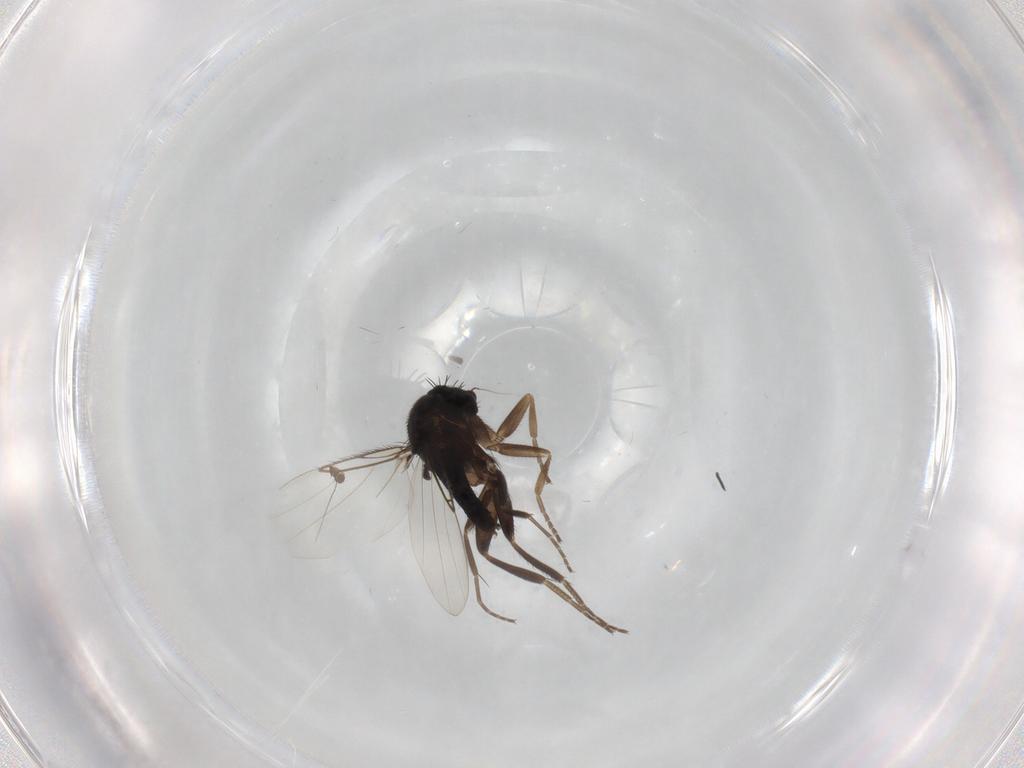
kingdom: Animalia
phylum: Arthropoda
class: Insecta
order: Diptera
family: Phoridae
